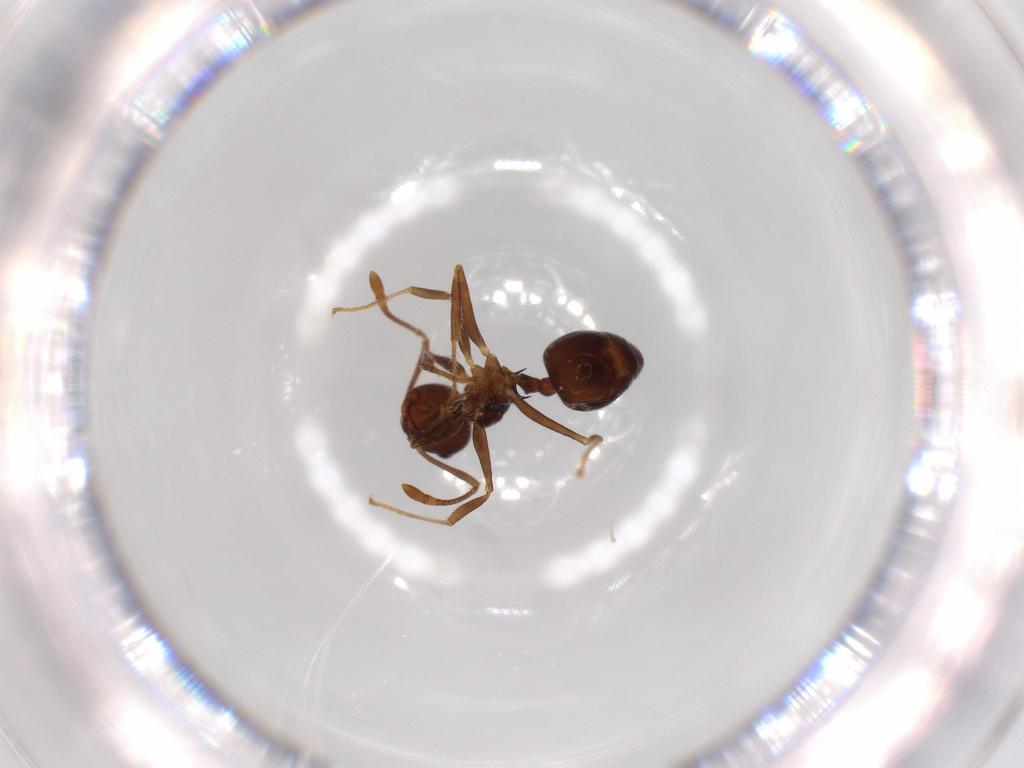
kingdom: Animalia
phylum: Arthropoda
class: Insecta
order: Hymenoptera
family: Formicidae
